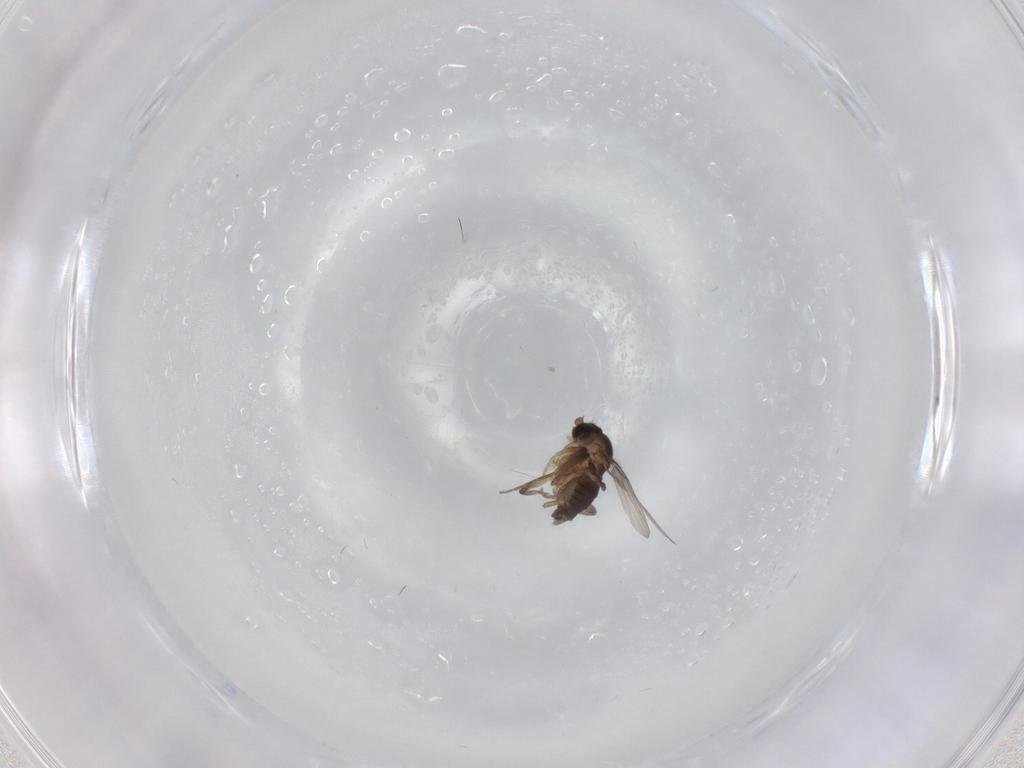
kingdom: Animalia
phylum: Arthropoda
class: Insecta
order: Diptera
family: Phoridae
